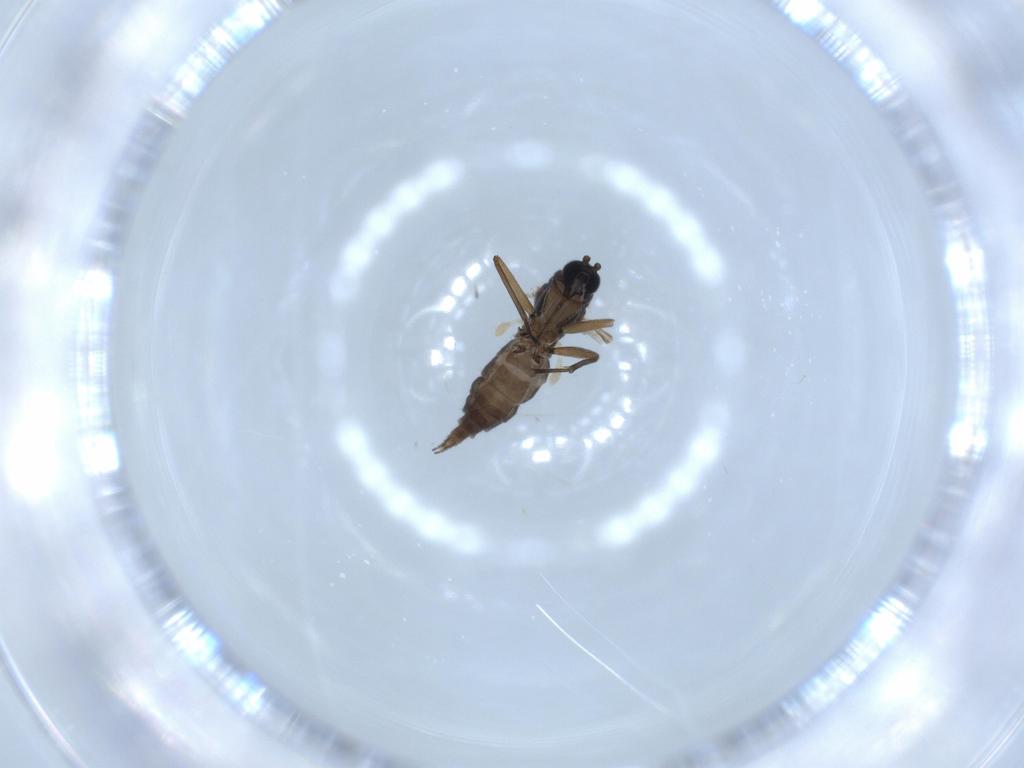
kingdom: Animalia
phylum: Arthropoda
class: Insecta
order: Diptera
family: Sciaridae
